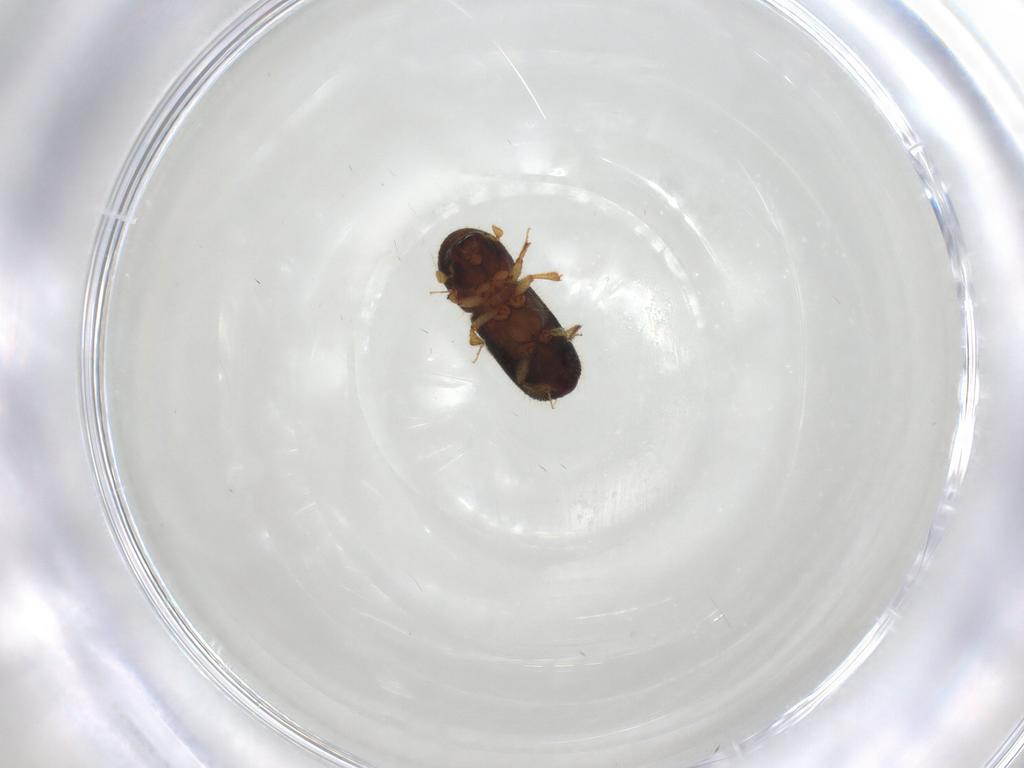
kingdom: Animalia
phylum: Arthropoda
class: Insecta
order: Coleoptera
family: Curculionidae
